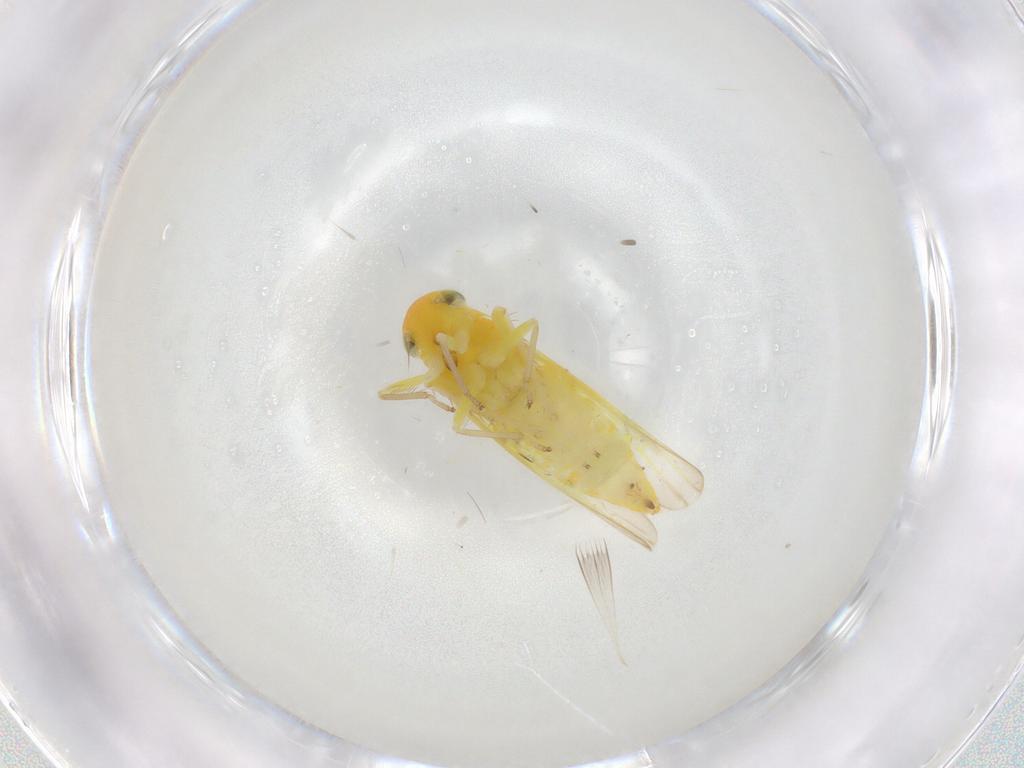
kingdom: Animalia
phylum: Arthropoda
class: Insecta
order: Hemiptera
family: Cicadellidae
